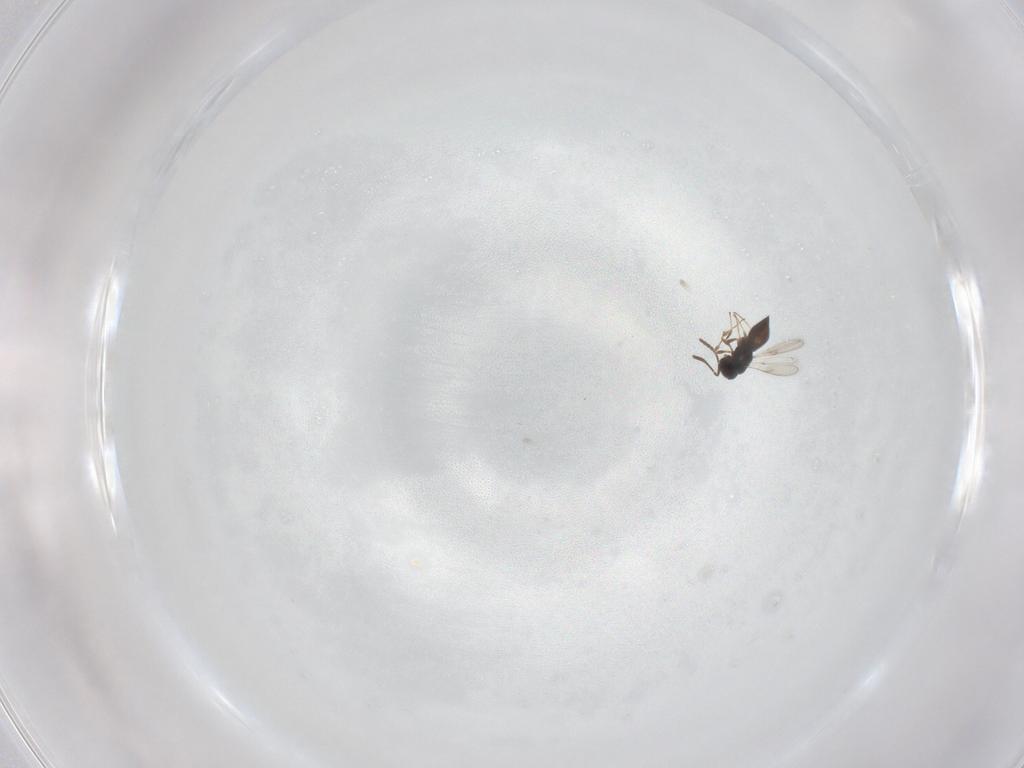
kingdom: Animalia
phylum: Arthropoda
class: Insecta
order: Hymenoptera
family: Scelionidae
